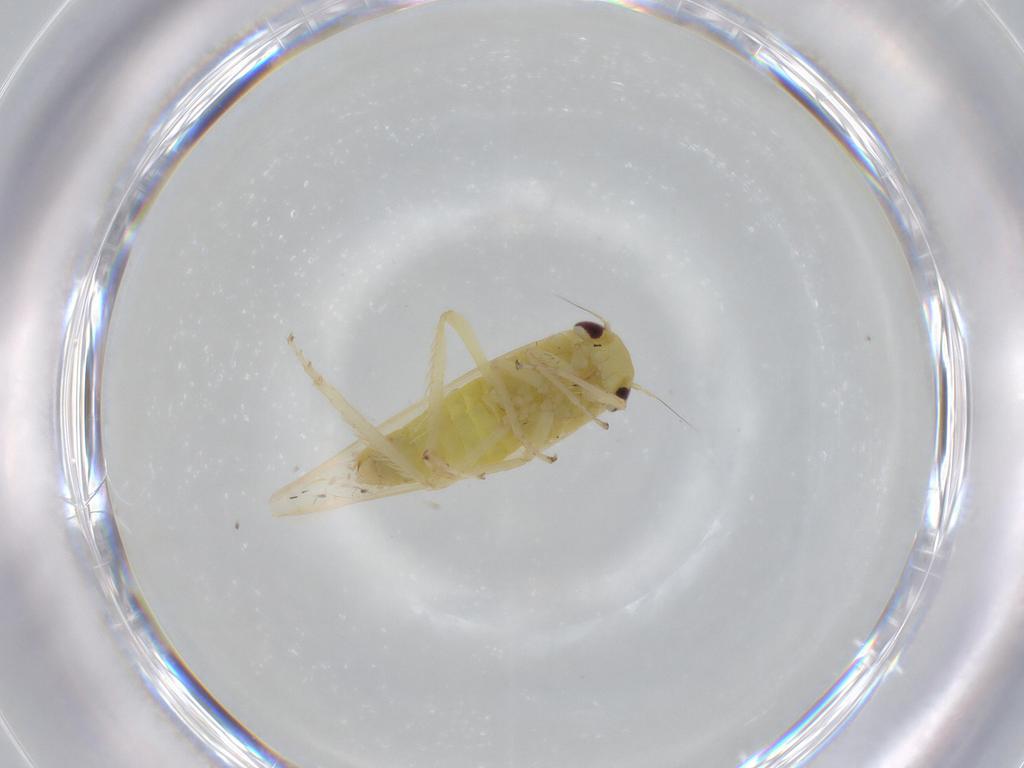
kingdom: Animalia
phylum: Arthropoda
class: Insecta
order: Hemiptera
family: Cicadellidae
